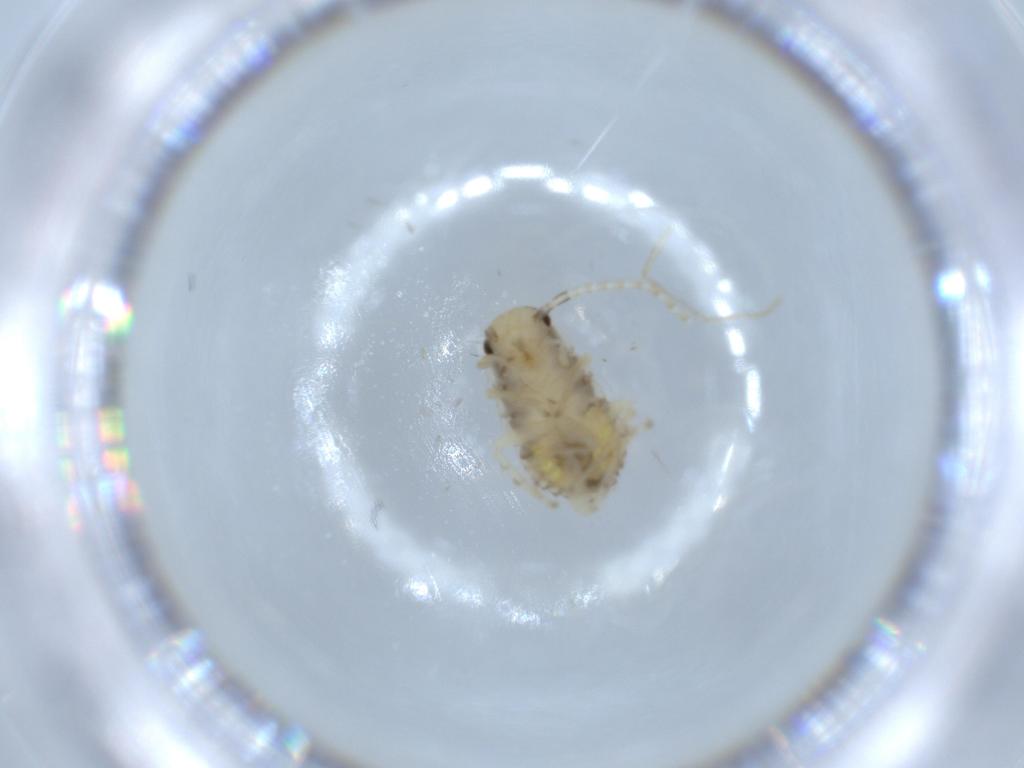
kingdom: Animalia
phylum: Arthropoda
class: Insecta
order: Blattodea
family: Ectobiidae
